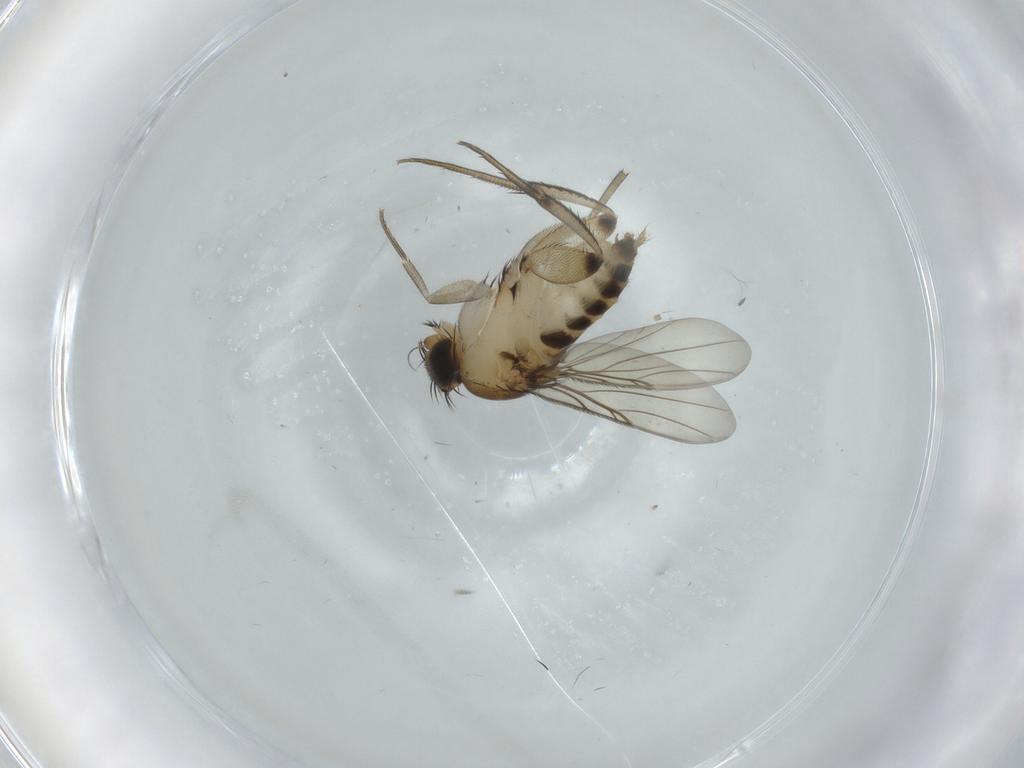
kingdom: Animalia
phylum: Arthropoda
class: Insecta
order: Diptera
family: Phoridae
